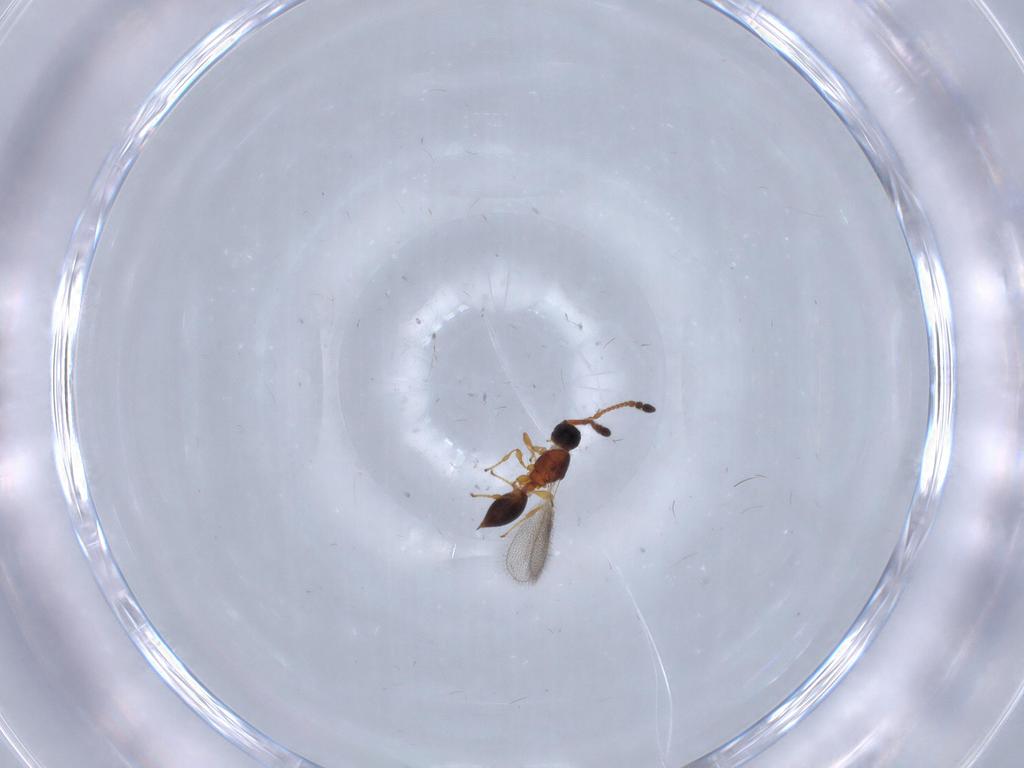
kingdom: Animalia
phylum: Arthropoda
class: Insecta
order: Hymenoptera
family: Diapriidae
